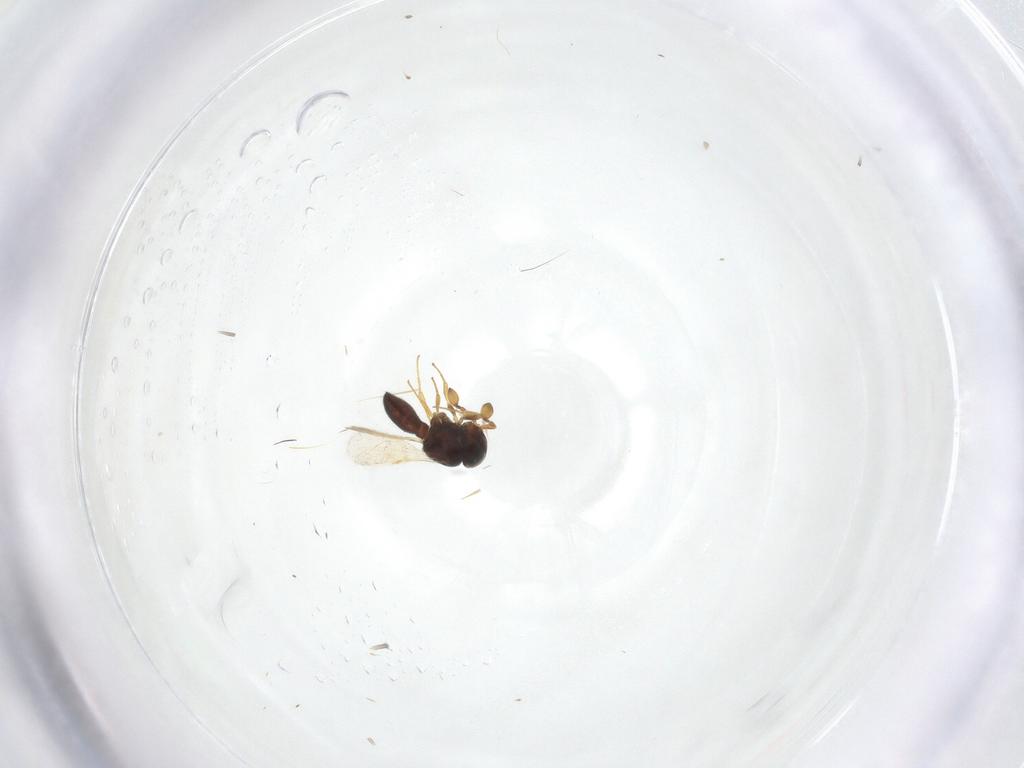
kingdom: Animalia
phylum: Arthropoda
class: Insecta
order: Hymenoptera
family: Scelionidae
